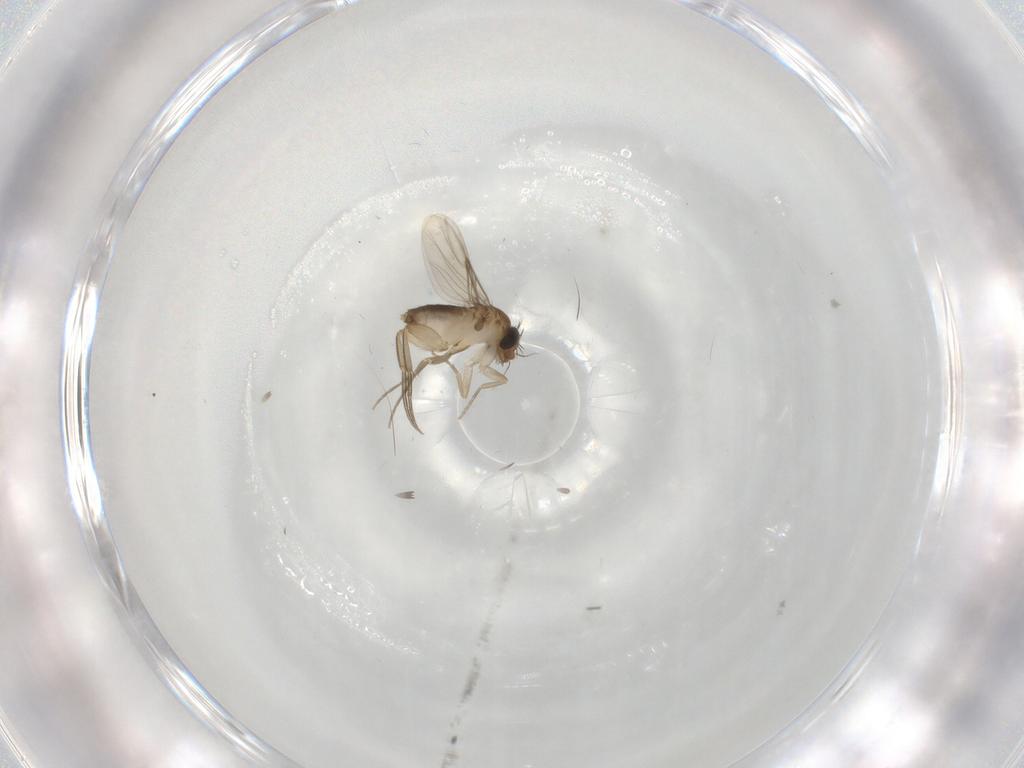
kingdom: Animalia
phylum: Arthropoda
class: Insecta
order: Diptera
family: Phoridae
